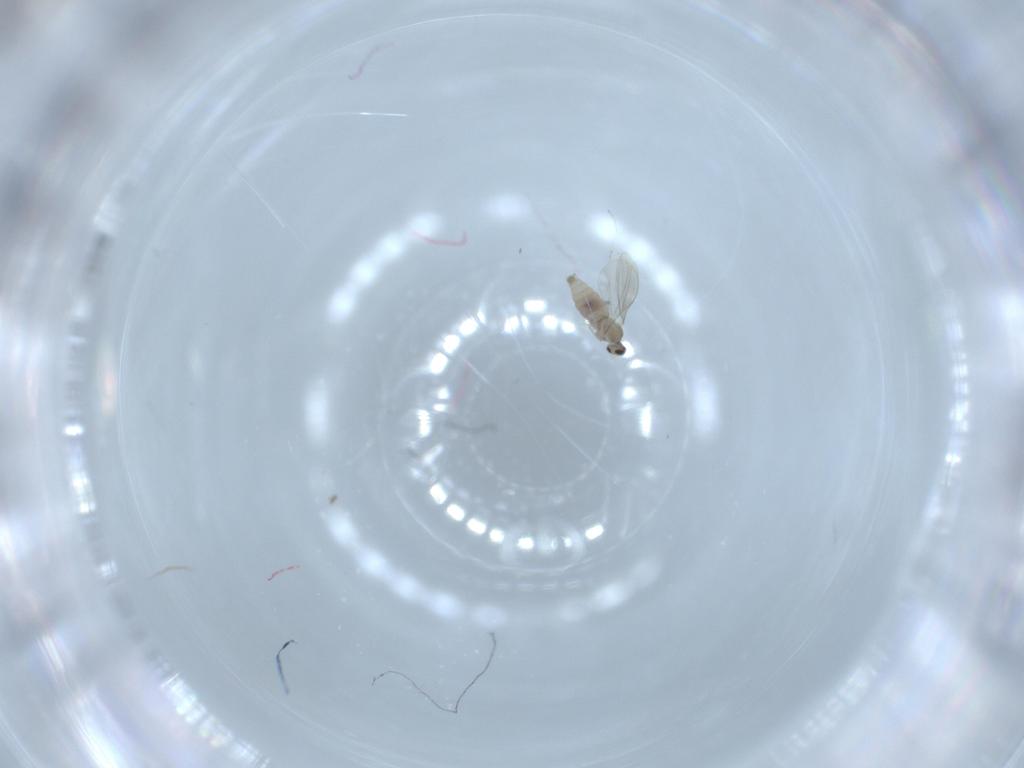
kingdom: Animalia
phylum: Arthropoda
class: Insecta
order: Diptera
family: Cecidomyiidae
